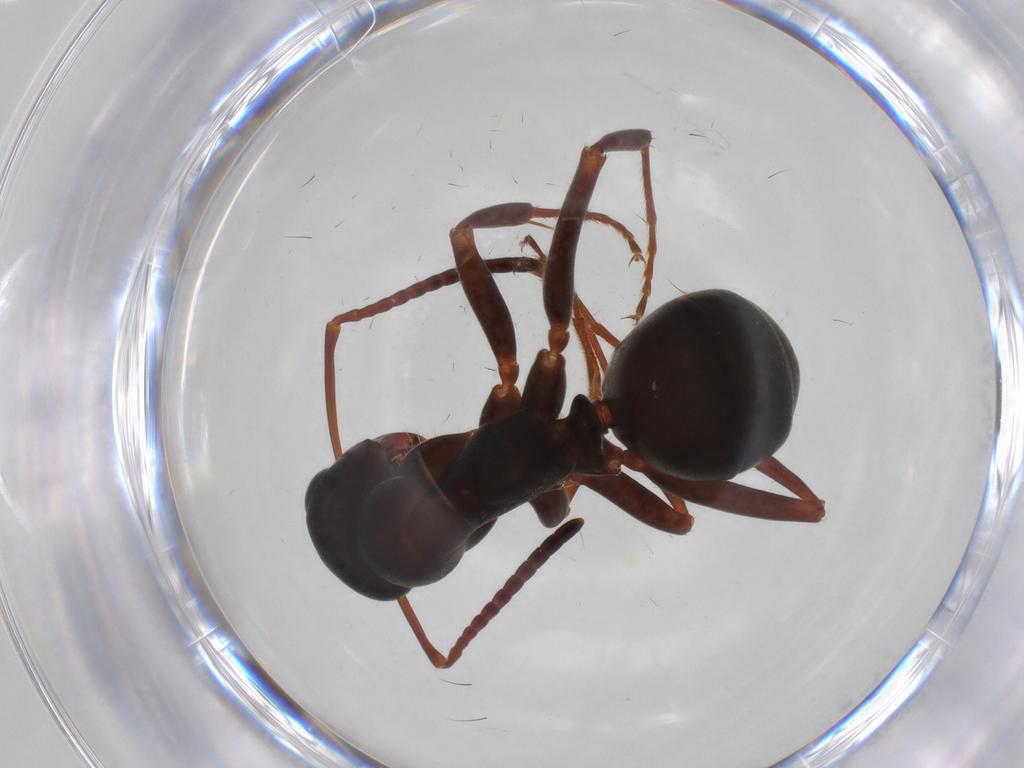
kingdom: Animalia
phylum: Arthropoda
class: Insecta
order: Hymenoptera
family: Formicidae
